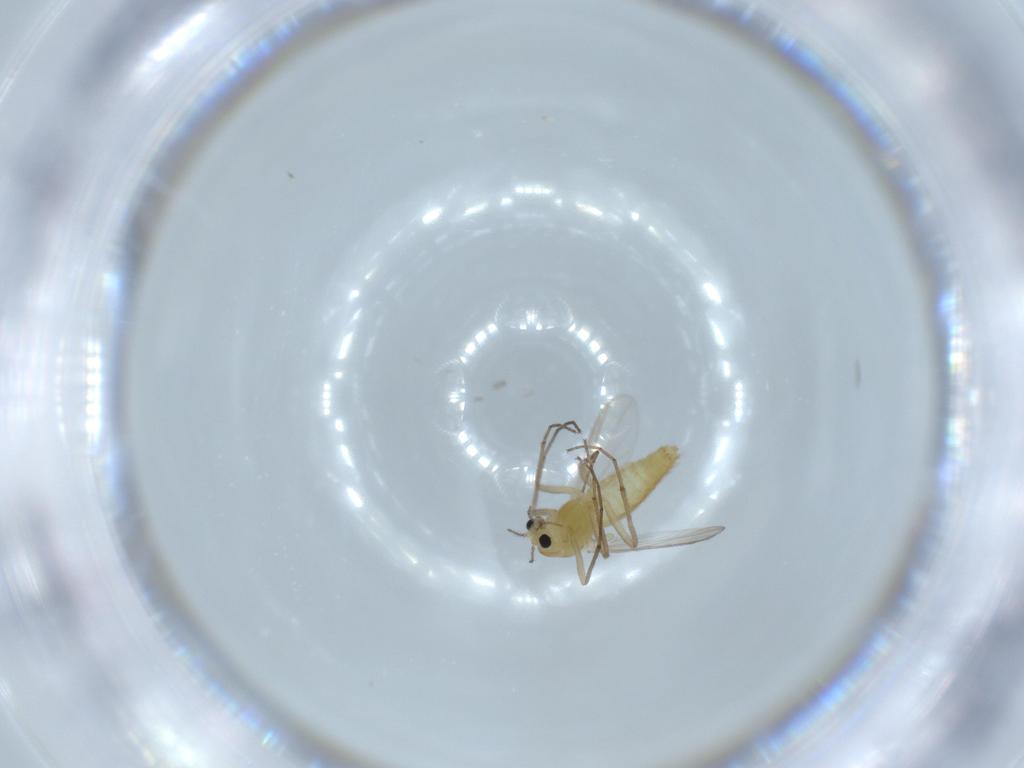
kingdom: Animalia
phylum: Arthropoda
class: Insecta
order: Diptera
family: Chironomidae
